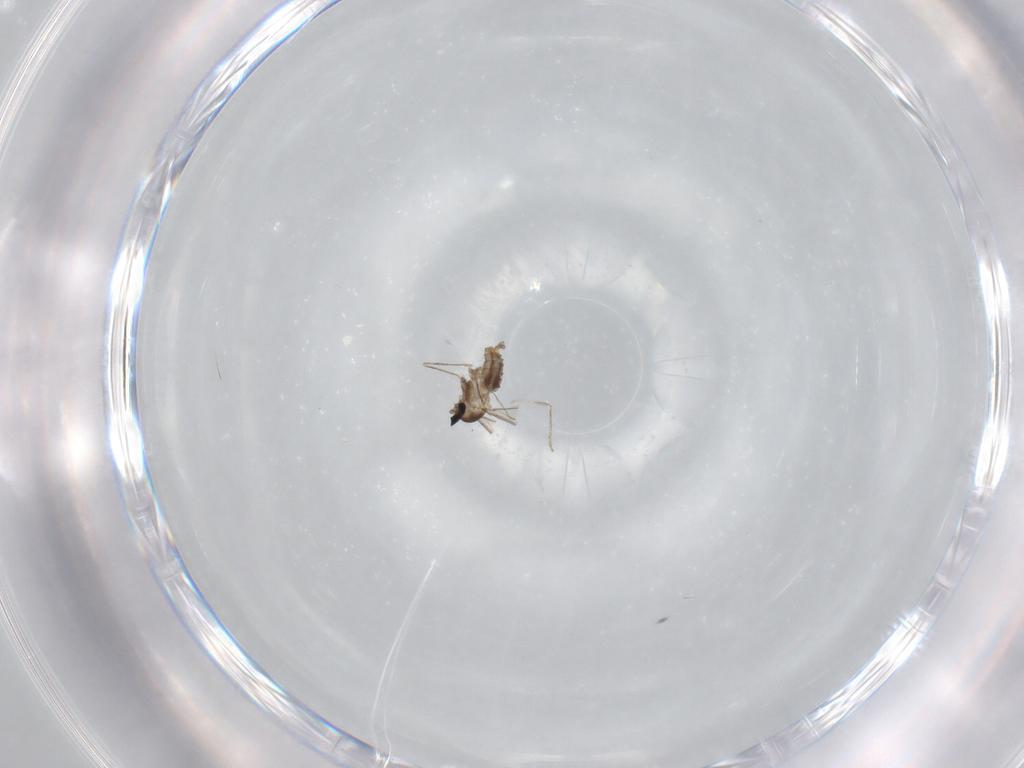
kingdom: Animalia
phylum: Arthropoda
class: Insecta
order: Diptera
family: Cecidomyiidae
